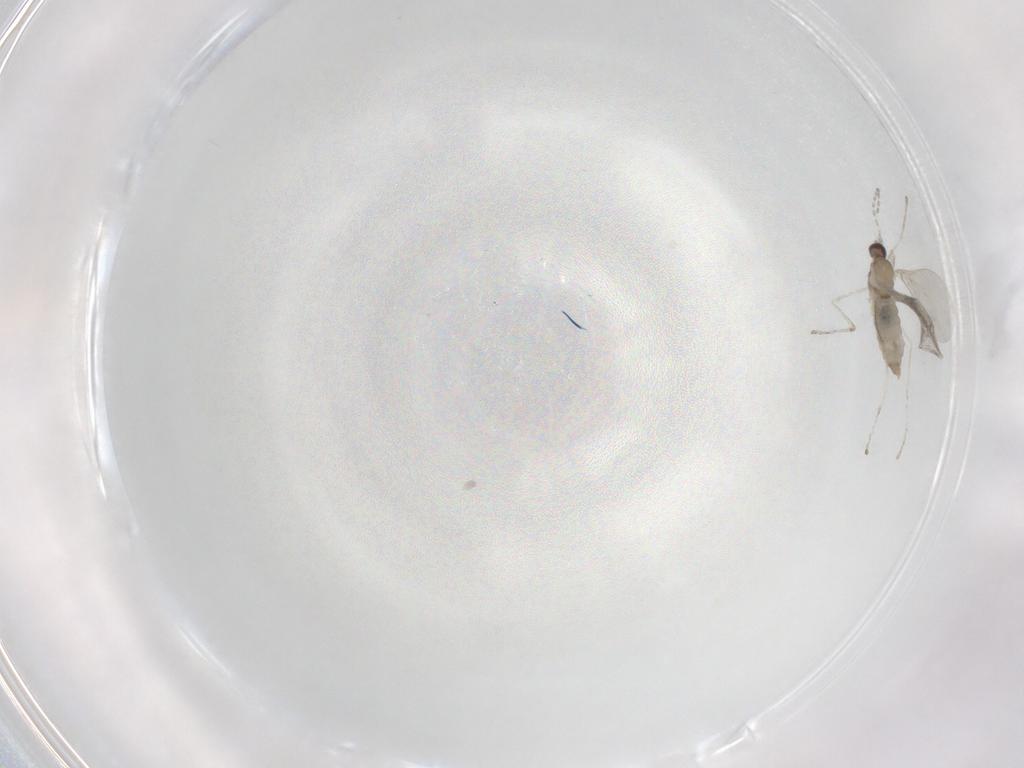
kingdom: Animalia
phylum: Arthropoda
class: Insecta
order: Diptera
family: Cecidomyiidae
